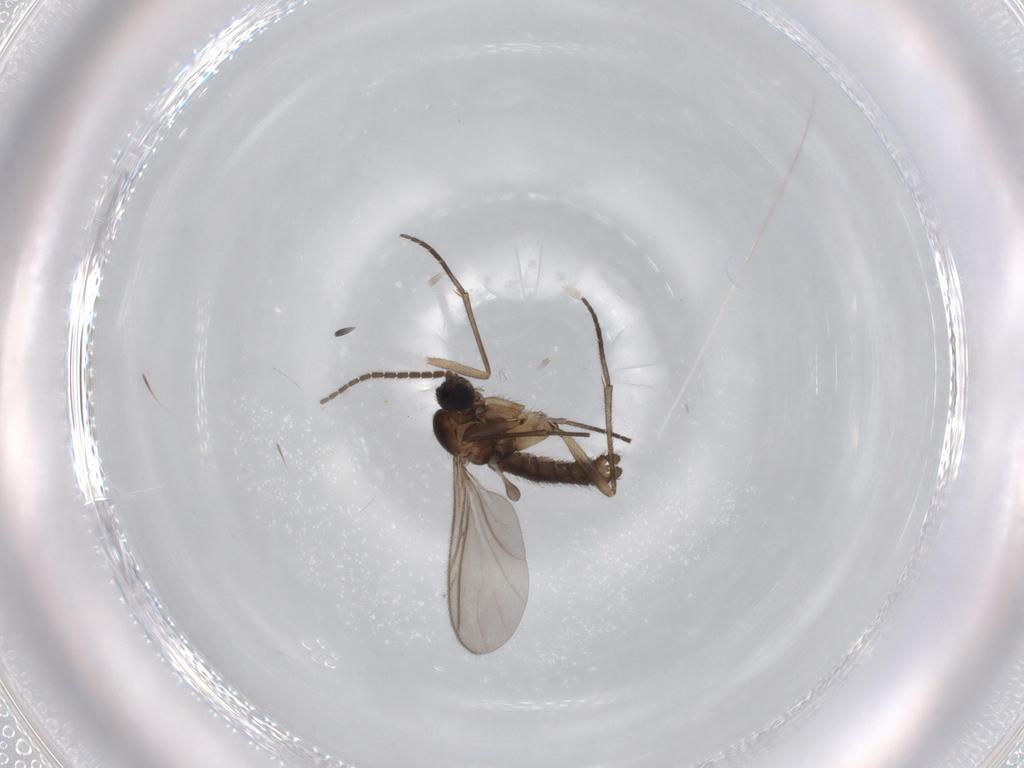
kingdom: Animalia
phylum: Arthropoda
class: Insecta
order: Diptera
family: Sciaridae
